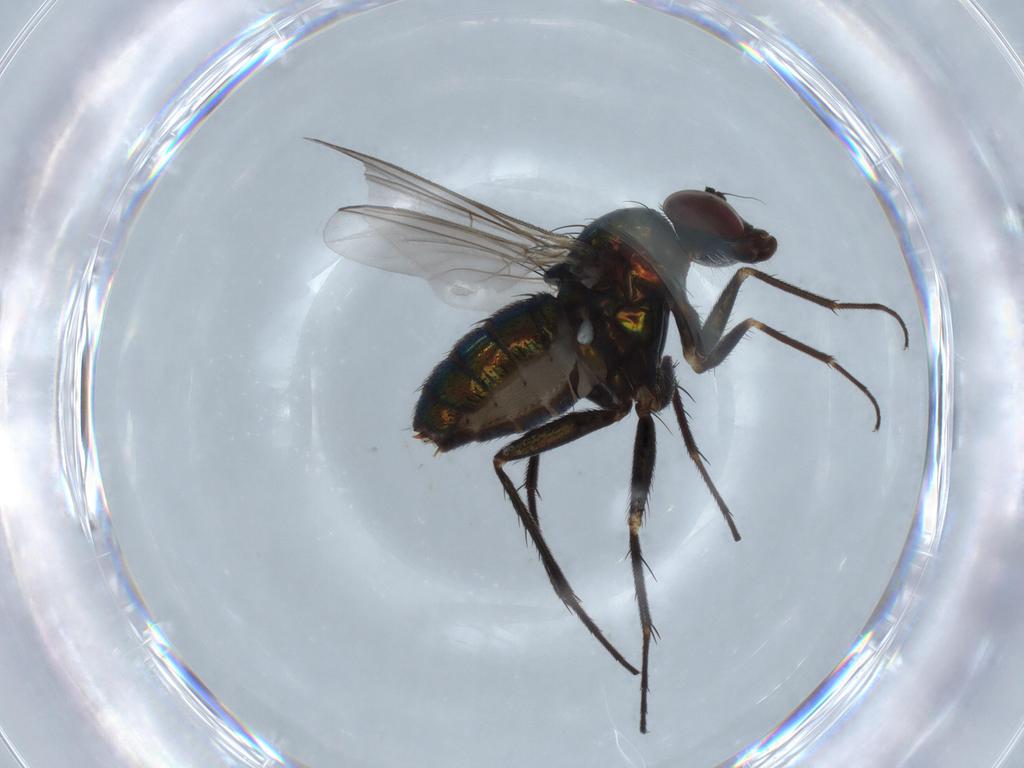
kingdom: Animalia
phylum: Arthropoda
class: Insecta
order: Diptera
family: Dolichopodidae
